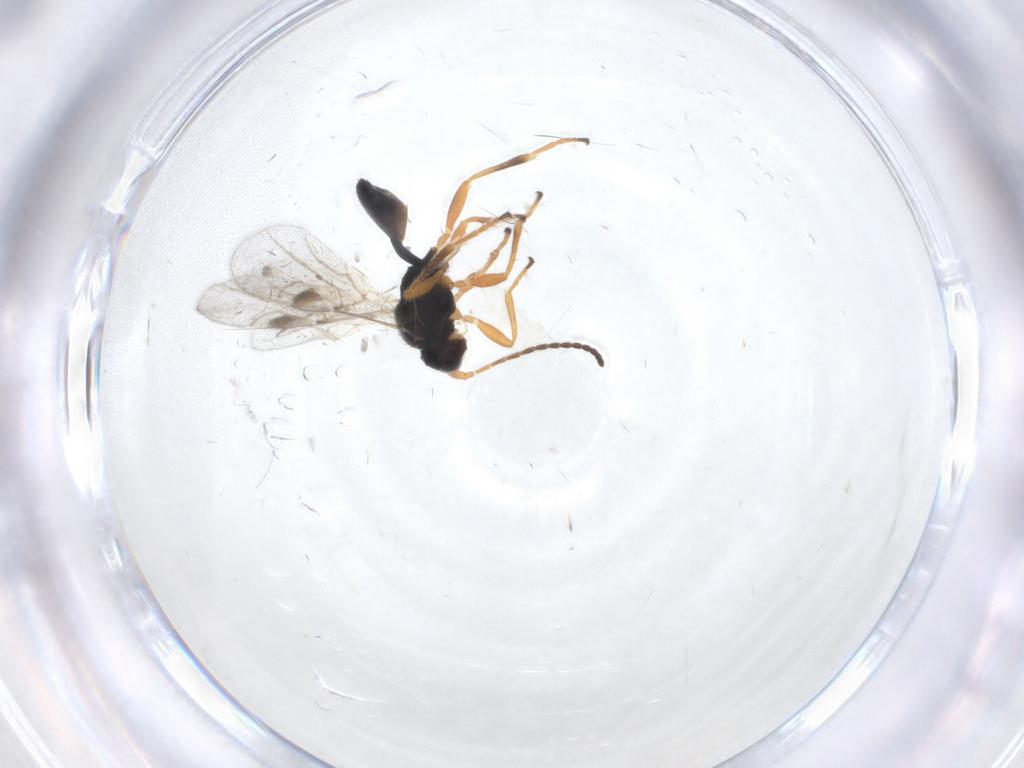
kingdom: Animalia
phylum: Arthropoda
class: Insecta
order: Hymenoptera
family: Braconidae
